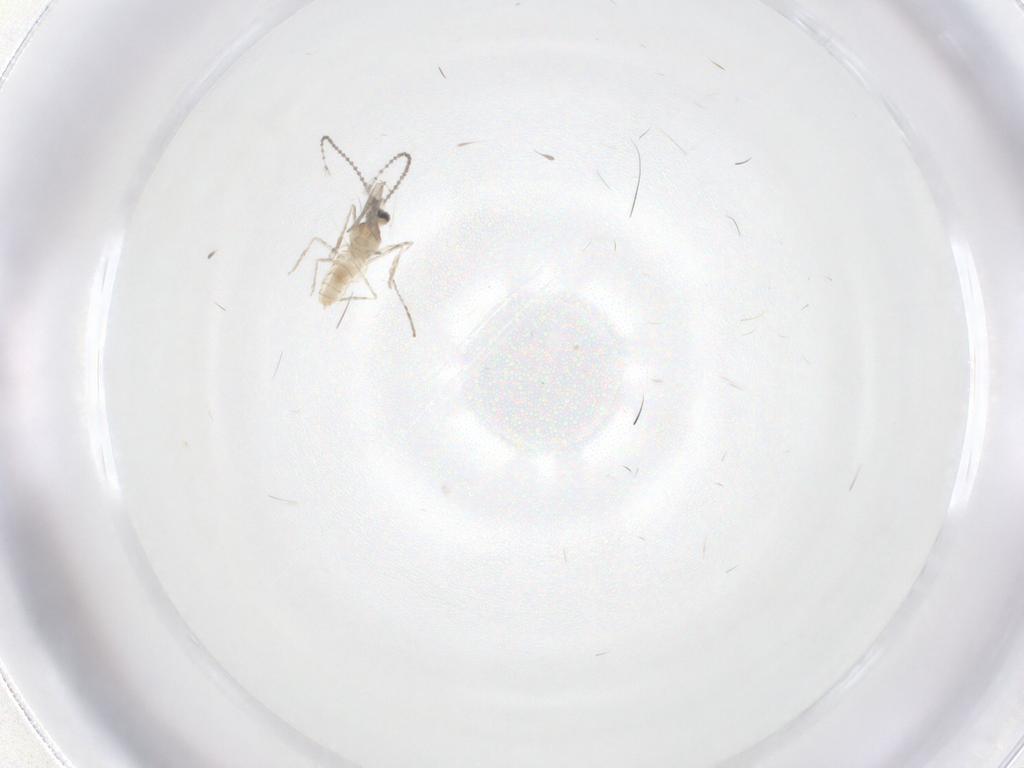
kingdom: Animalia
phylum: Arthropoda
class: Insecta
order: Diptera
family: Cecidomyiidae
